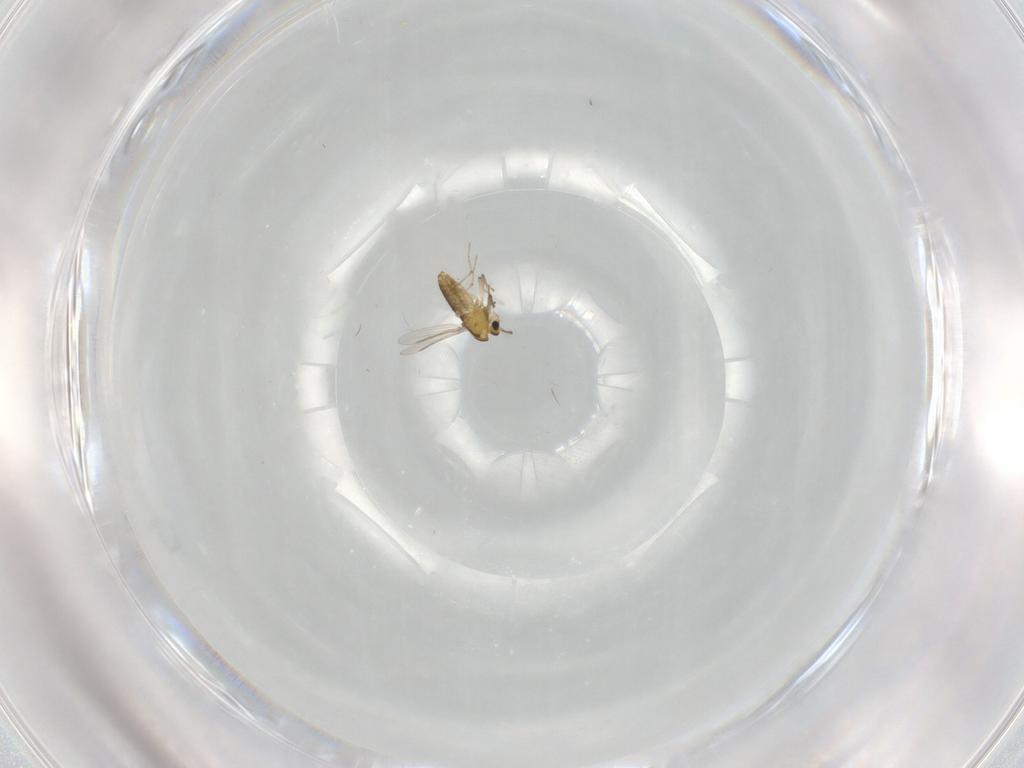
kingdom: Animalia
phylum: Arthropoda
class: Insecta
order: Diptera
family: Chironomidae
